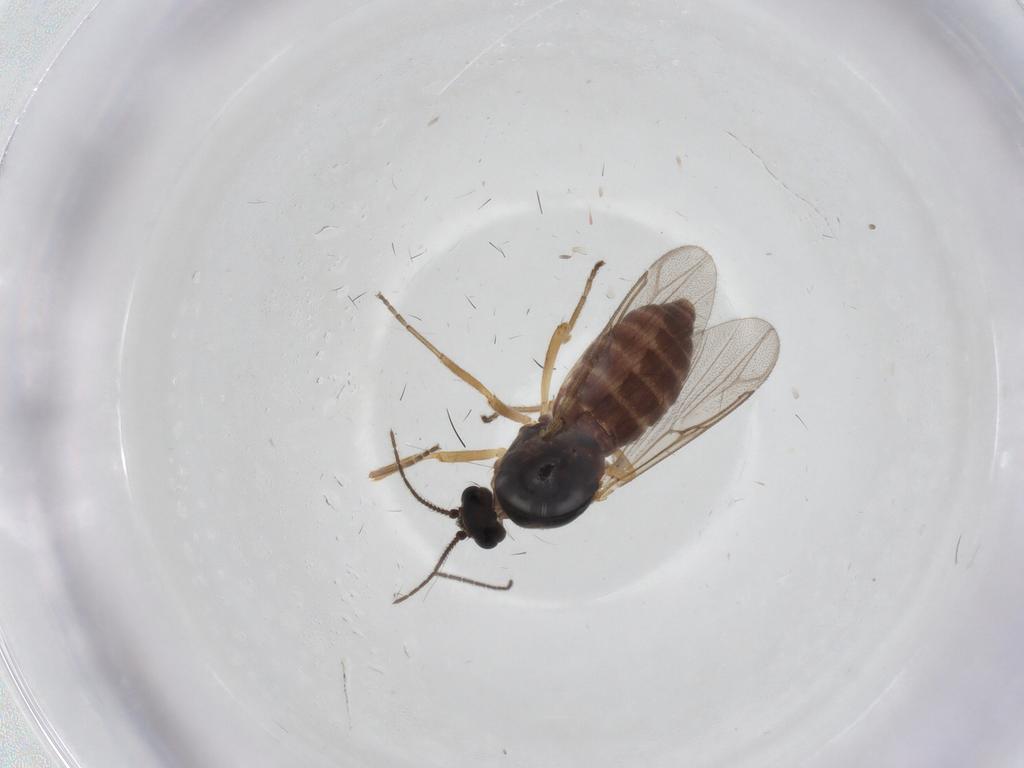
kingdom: Animalia
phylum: Arthropoda
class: Insecta
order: Diptera
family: Ceratopogonidae
